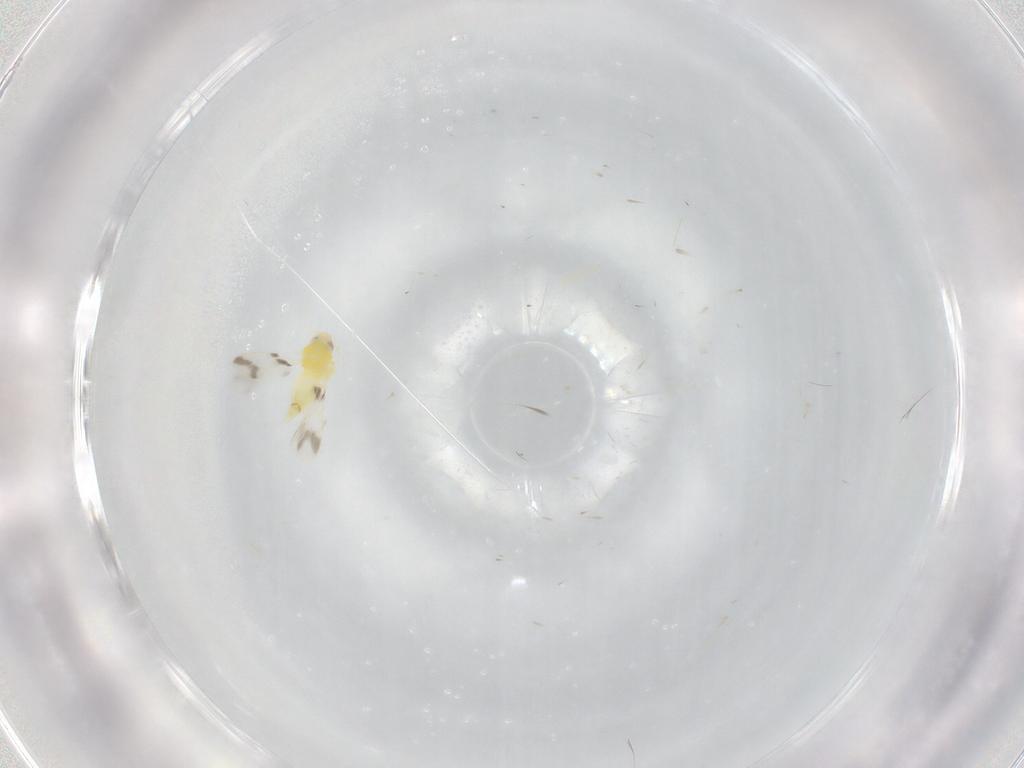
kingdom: Animalia
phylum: Arthropoda
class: Insecta
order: Hemiptera
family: Aleyrodidae
